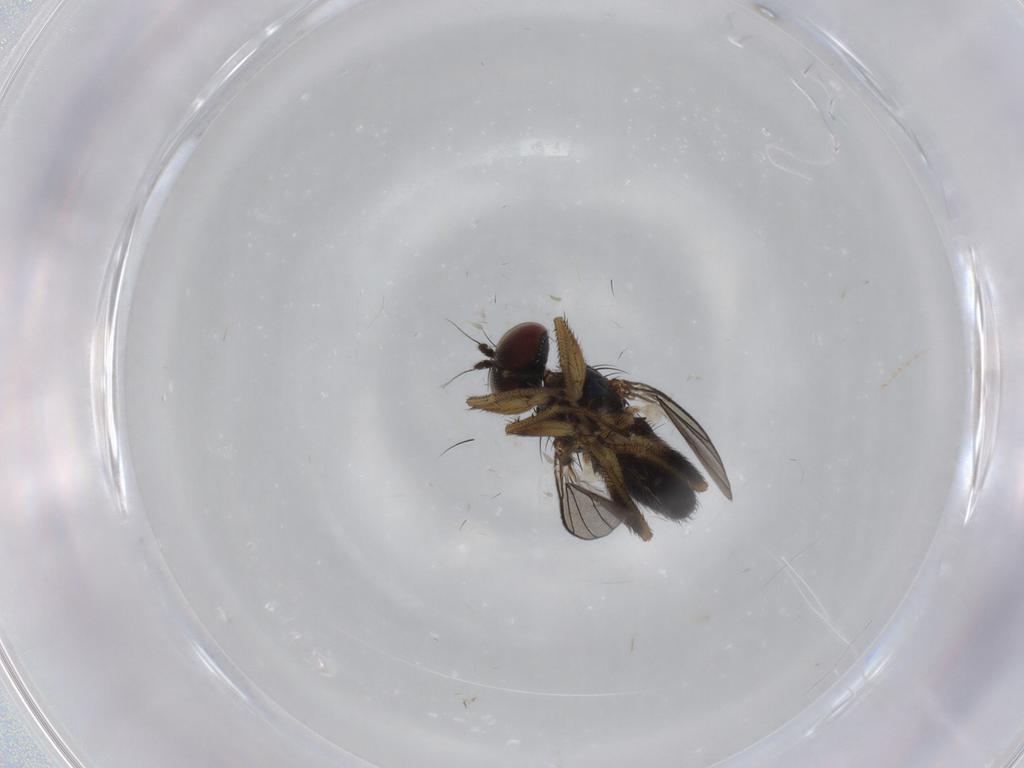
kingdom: Animalia
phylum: Arthropoda
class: Insecta
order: Diptera
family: Dolichopodidae
